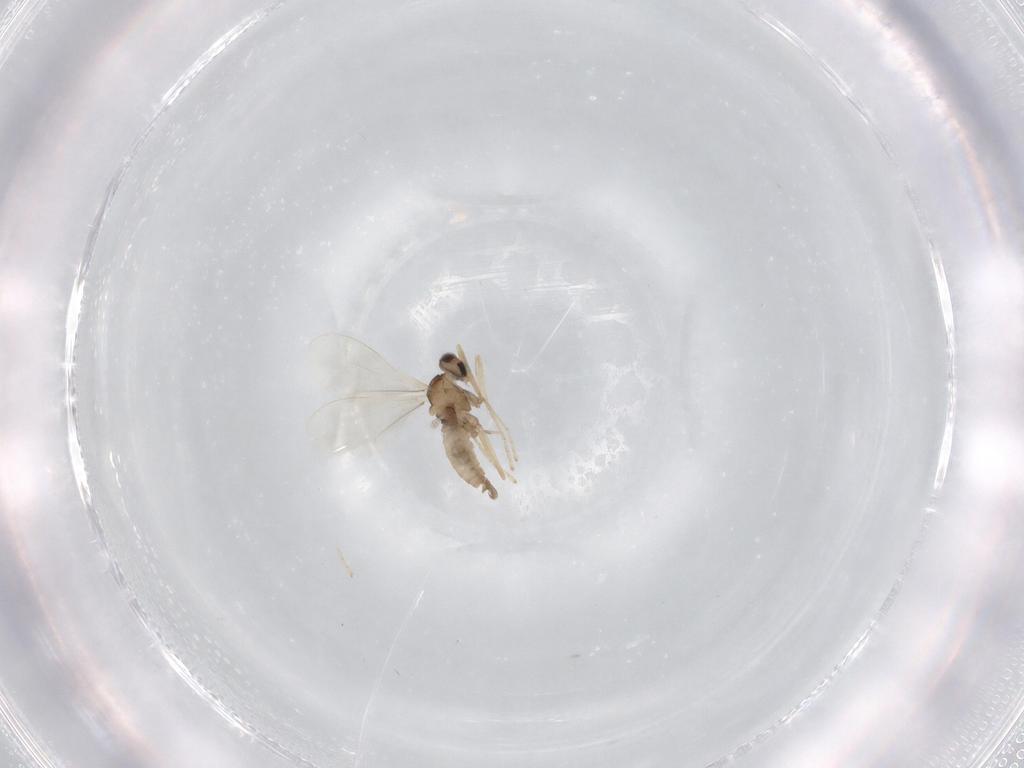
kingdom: Animalia
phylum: Arthropoda
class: Insecta
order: Diptera
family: Cecidomyiidae
